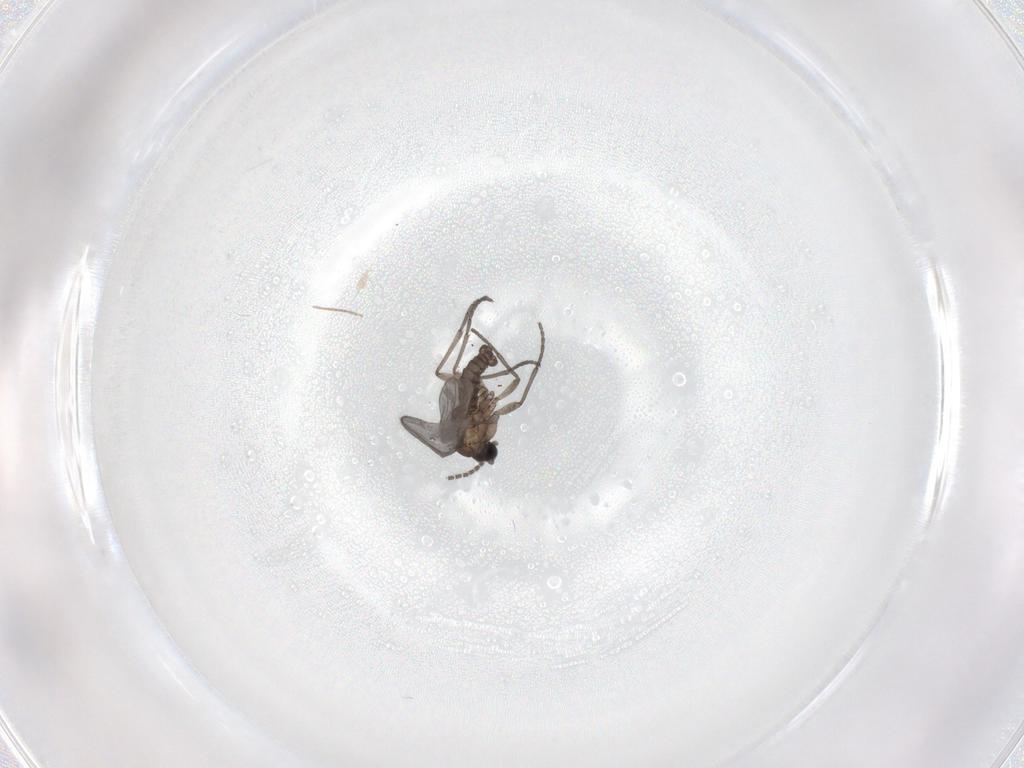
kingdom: Animalia
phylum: Arthropoda
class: Insecta
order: Diptera
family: Sciaridae
